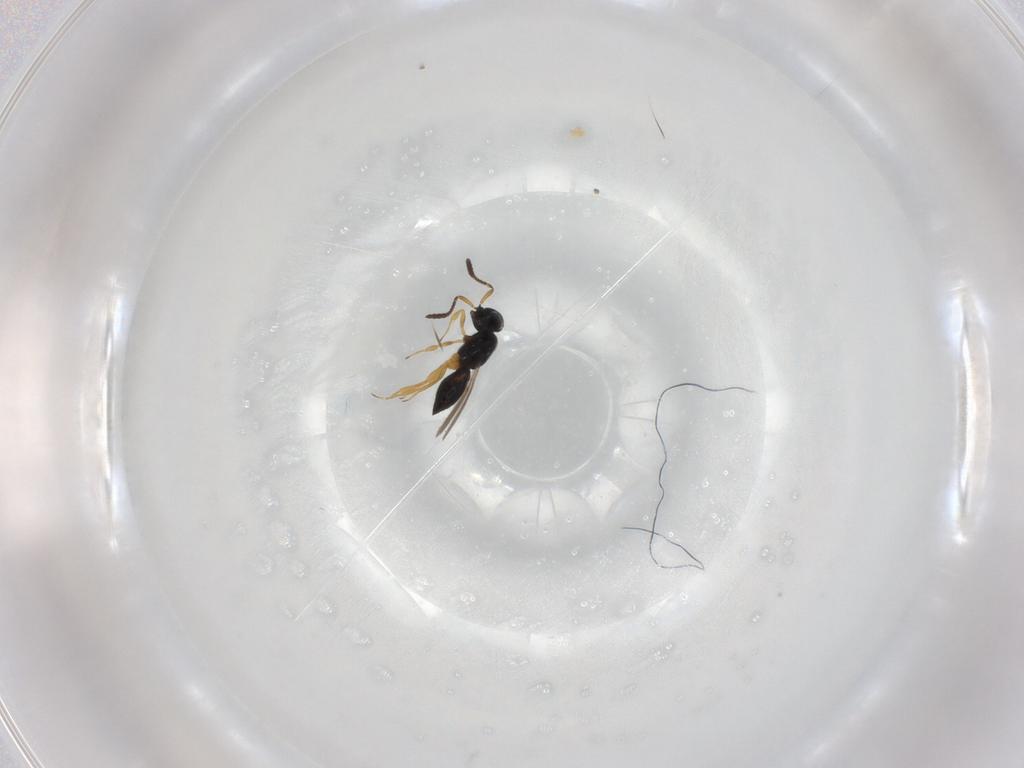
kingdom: Animalia
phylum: Arthropoda
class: Insecta
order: Hymenoptera
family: Scelionidae
